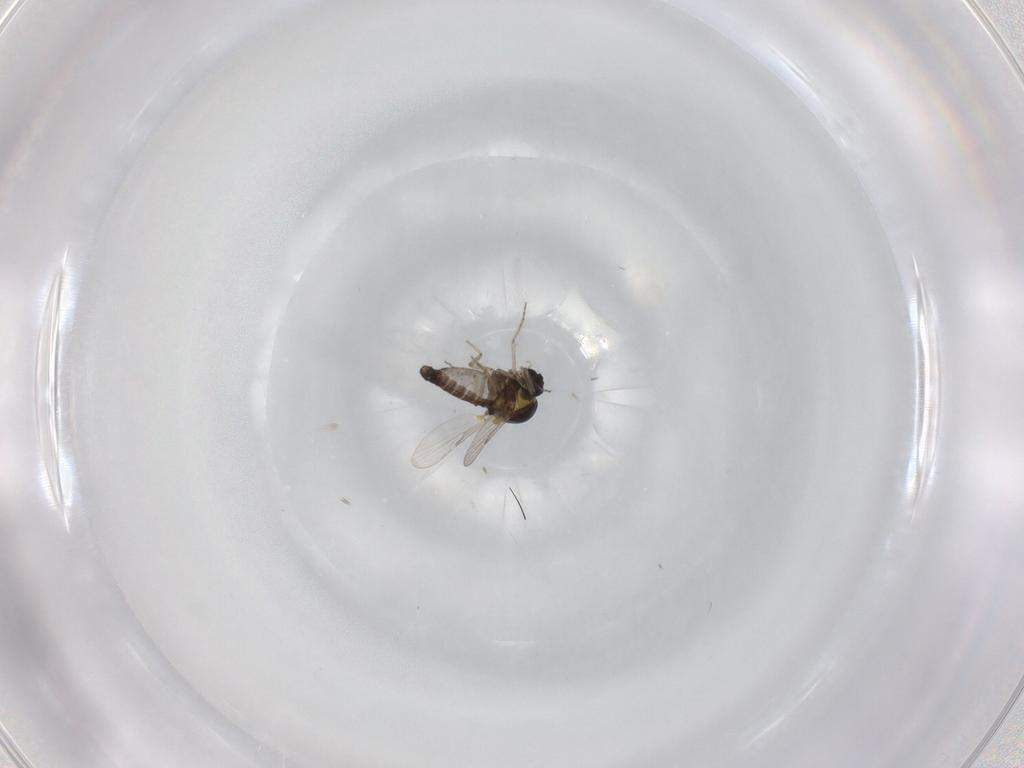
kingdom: Animalia
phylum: Arthropoda
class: Insecta
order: Diptera
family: Ceratopogonidae
